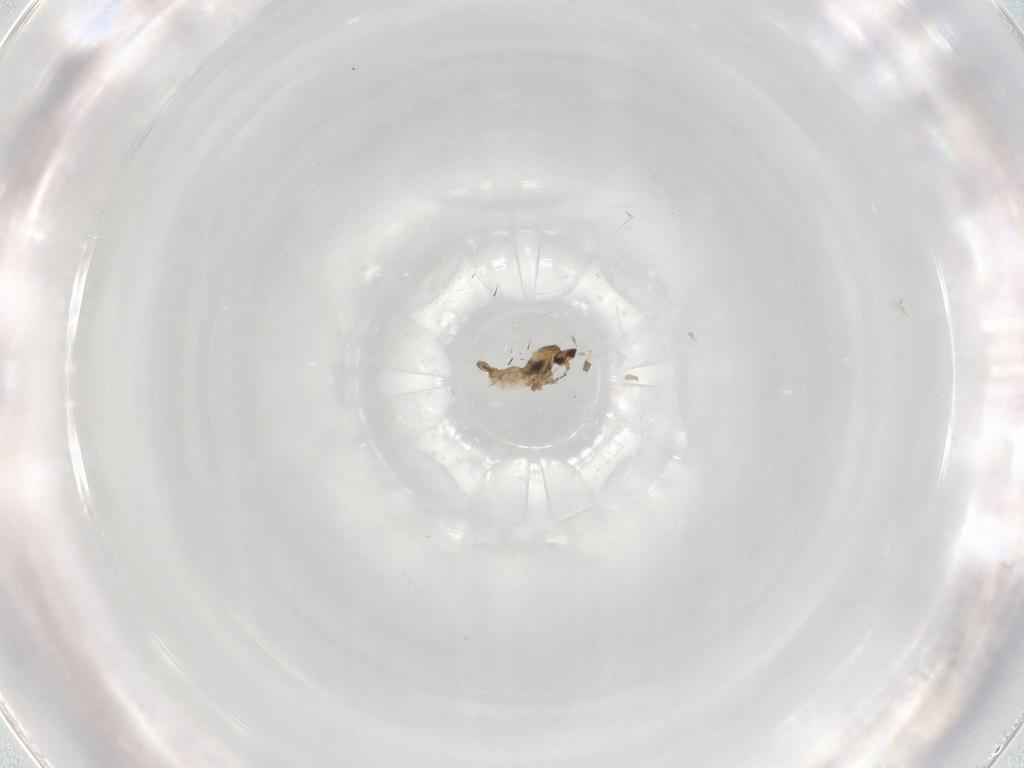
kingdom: Animalia
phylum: Arthropoda
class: Insecta
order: Diptera
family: Cecidomyiidae
